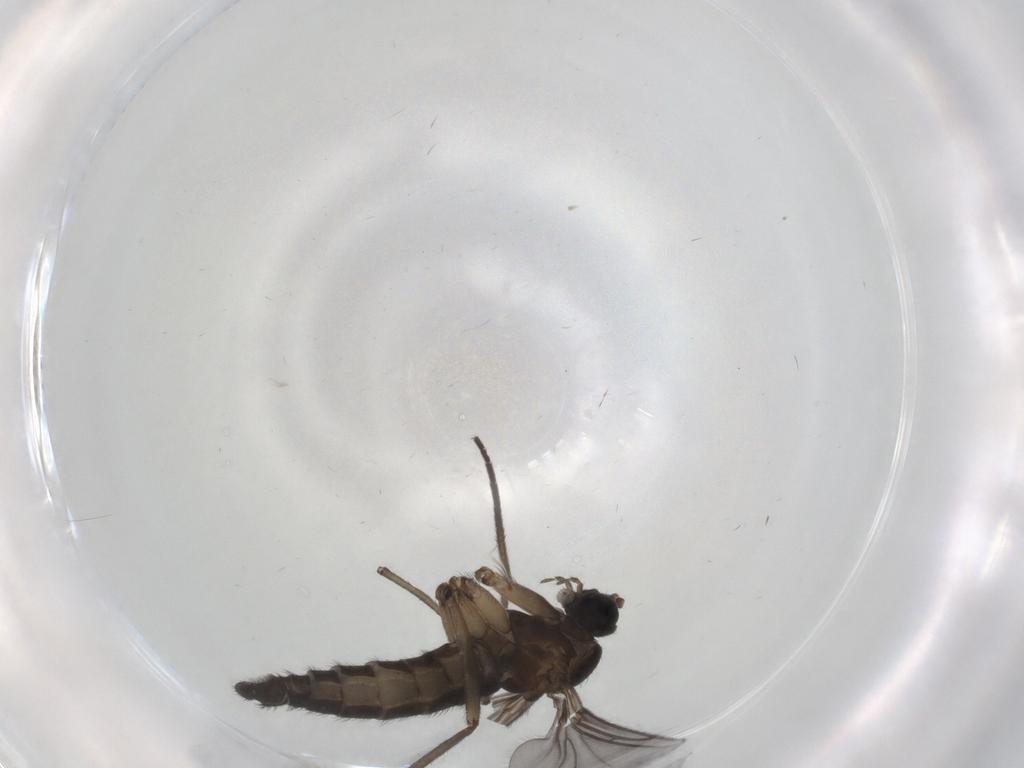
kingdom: Animalia
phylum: Arthropoda
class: Insecta
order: Diptera
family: Sciaridae
